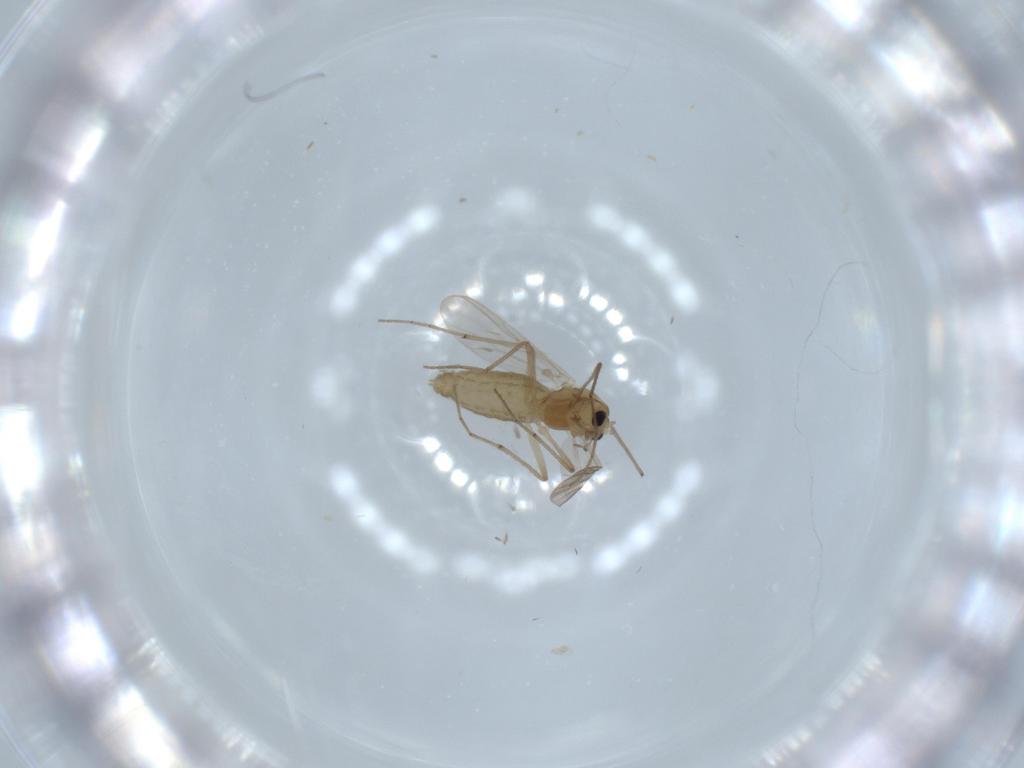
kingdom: Animalia
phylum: Arthropoda
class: Insecta
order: Diptera
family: Chironomidae
